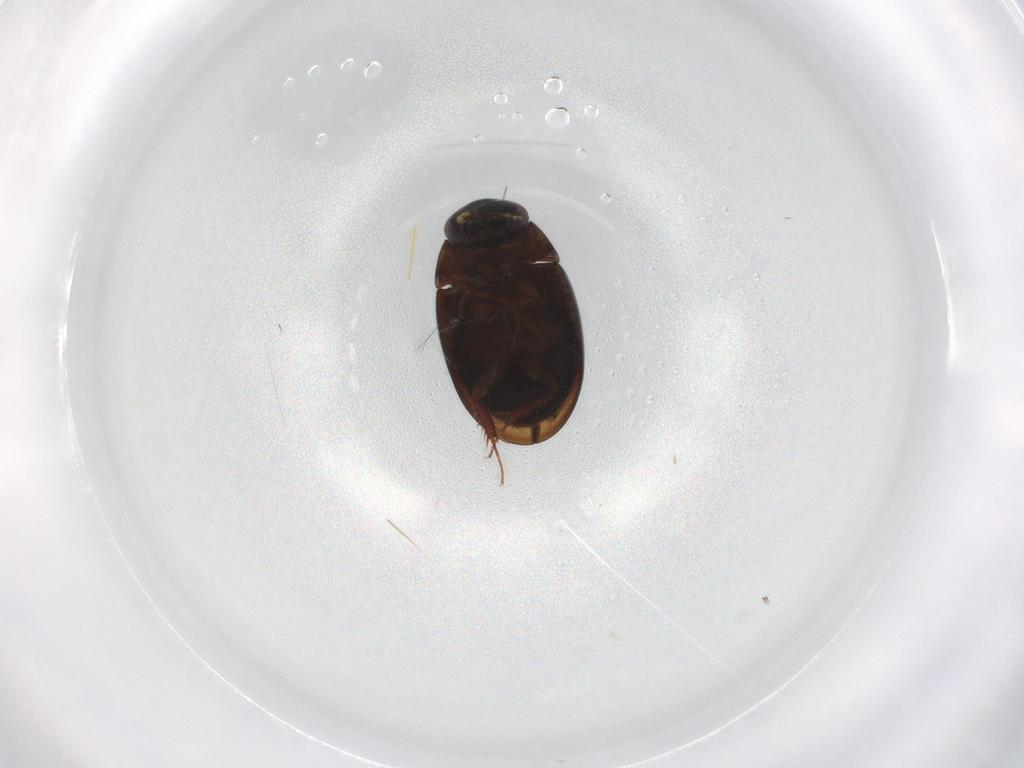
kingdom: Animalia
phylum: Arthropoda
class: Insecta
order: Coleoptera
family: Hydrophilidae
